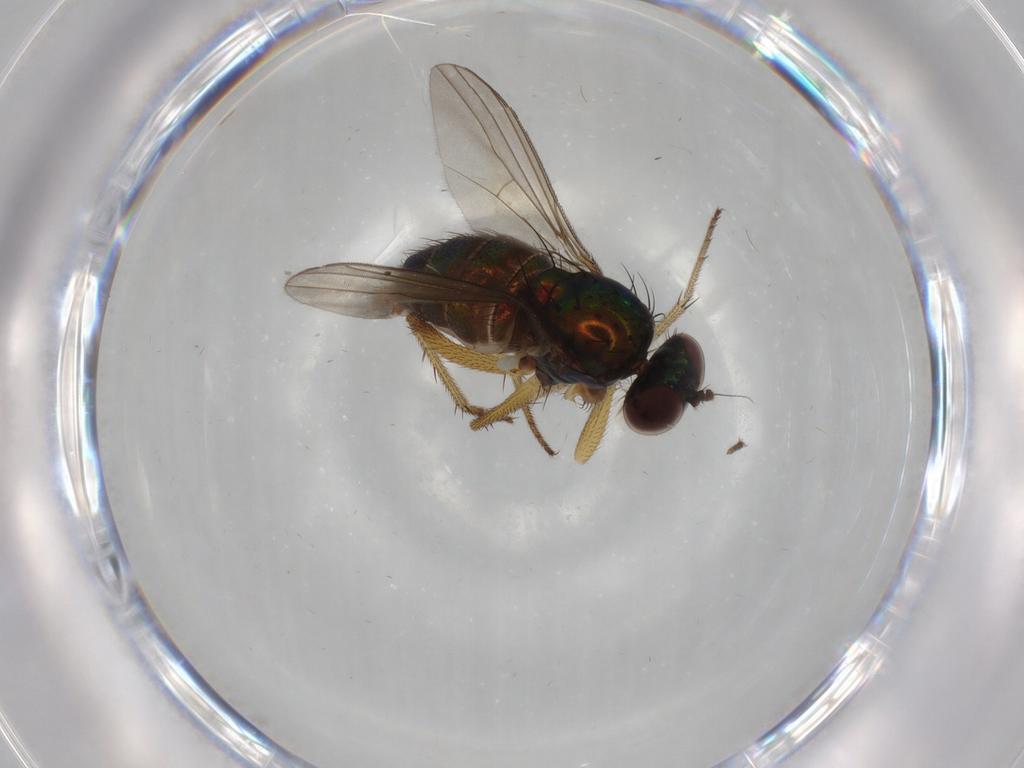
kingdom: Animalia
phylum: Arthropoda
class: Insecta
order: Diptera
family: Dolichopodidae
